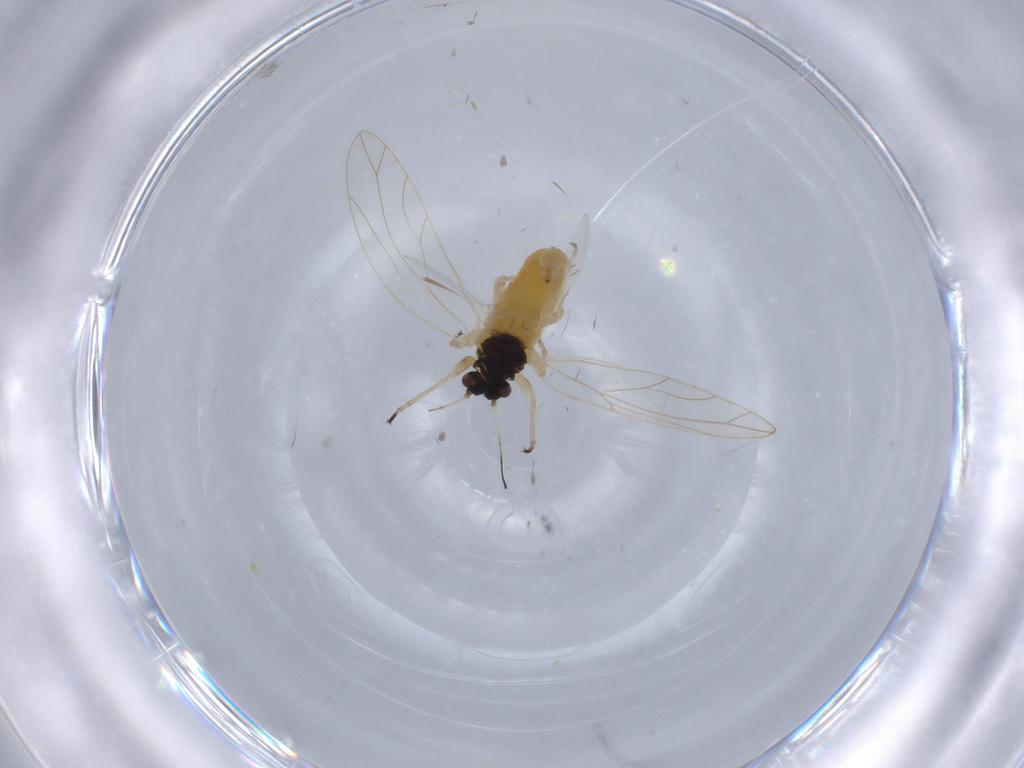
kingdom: Animalia
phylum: Arthropoda
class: Insecta
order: Hemiptera
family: Triozidae
